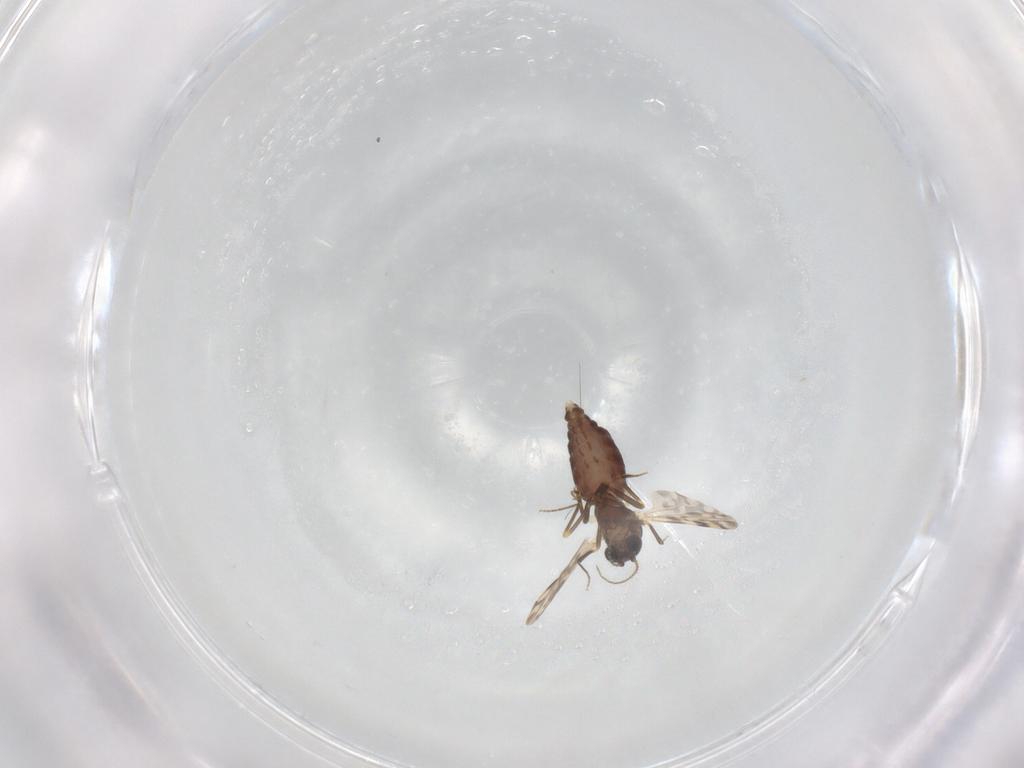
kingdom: Animalia
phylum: Arthropoda
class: Insecta
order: Diptera
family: Ceratopogonidae
